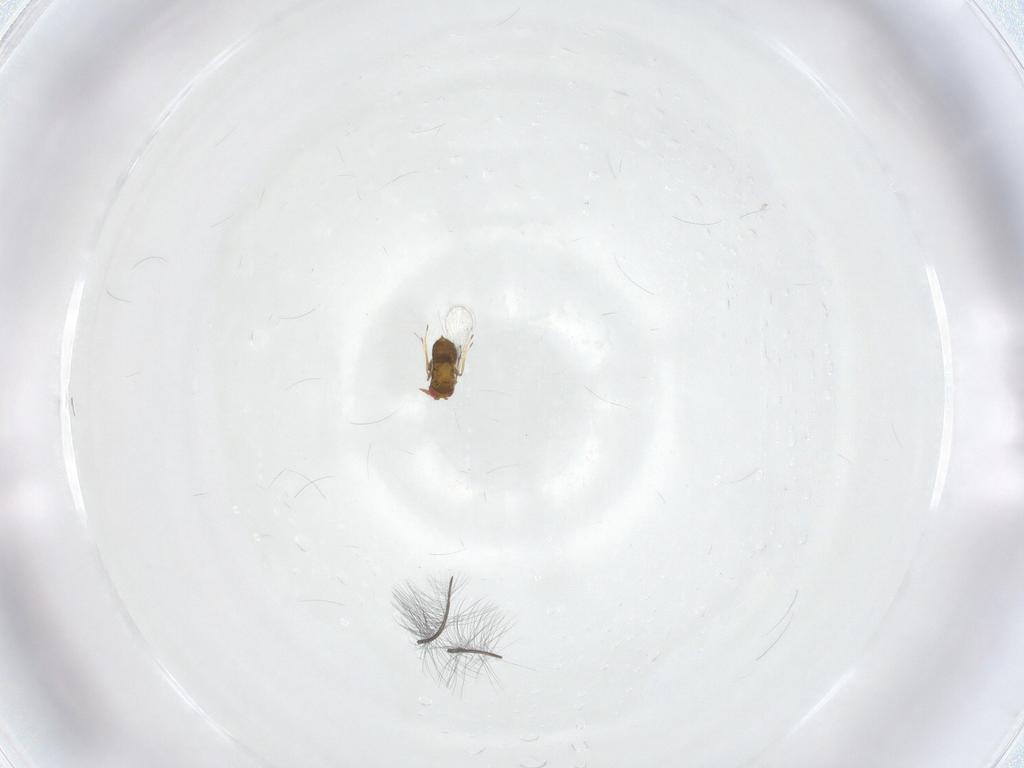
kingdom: Animalia
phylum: Arthropoda
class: Insecta
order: Hymenoptera
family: Trichogrammatidae
